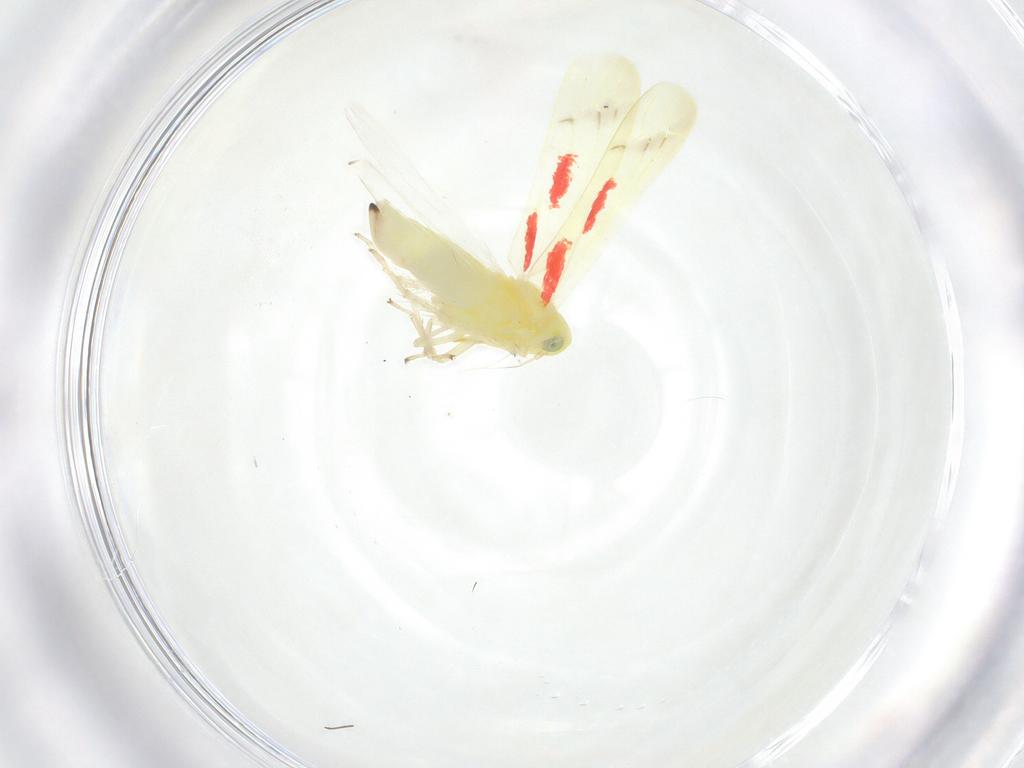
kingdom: Animalia
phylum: Arthropoda
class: Insecta
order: Hemiptera
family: Cicadellidae
